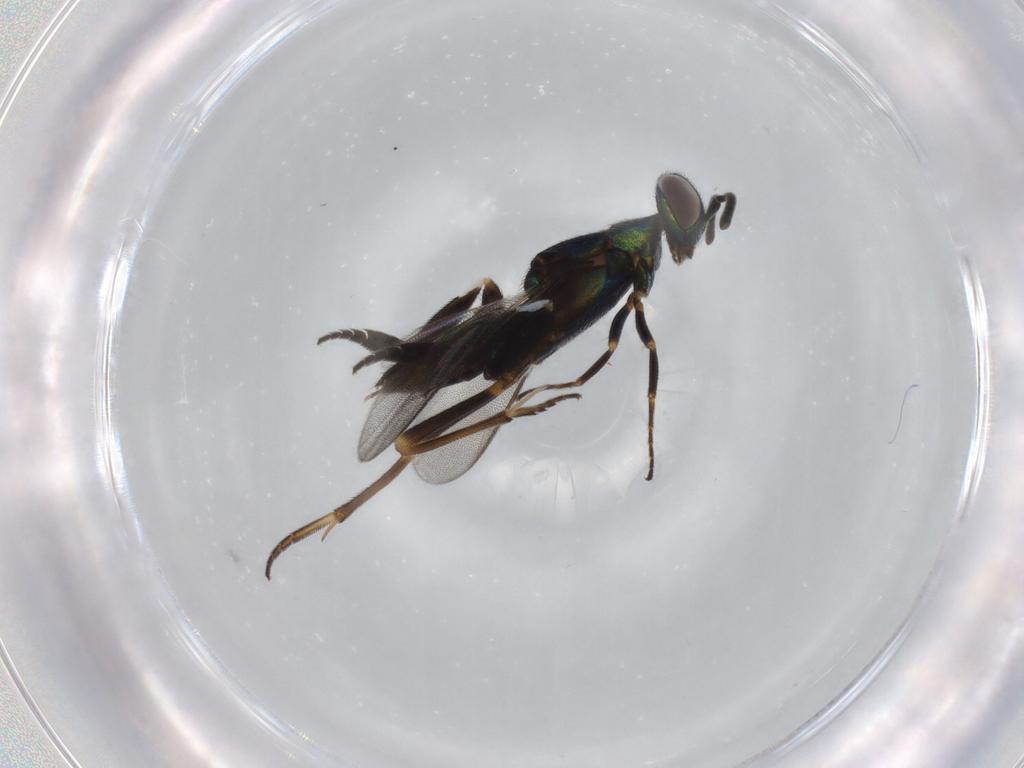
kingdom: Animalia
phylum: Arthropoda
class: Insecta
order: Hymenoptera
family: Eupelmidae
